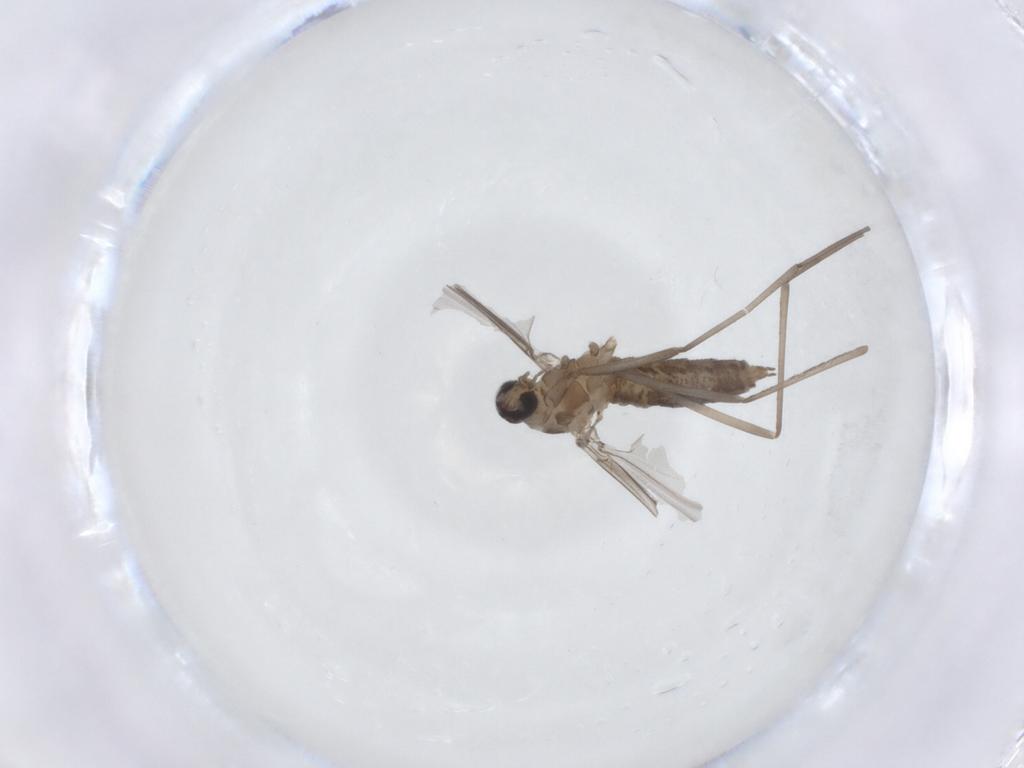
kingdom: Animalia
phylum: Arthropoda
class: Insecta
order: Diptera
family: Cecidomyiidae
